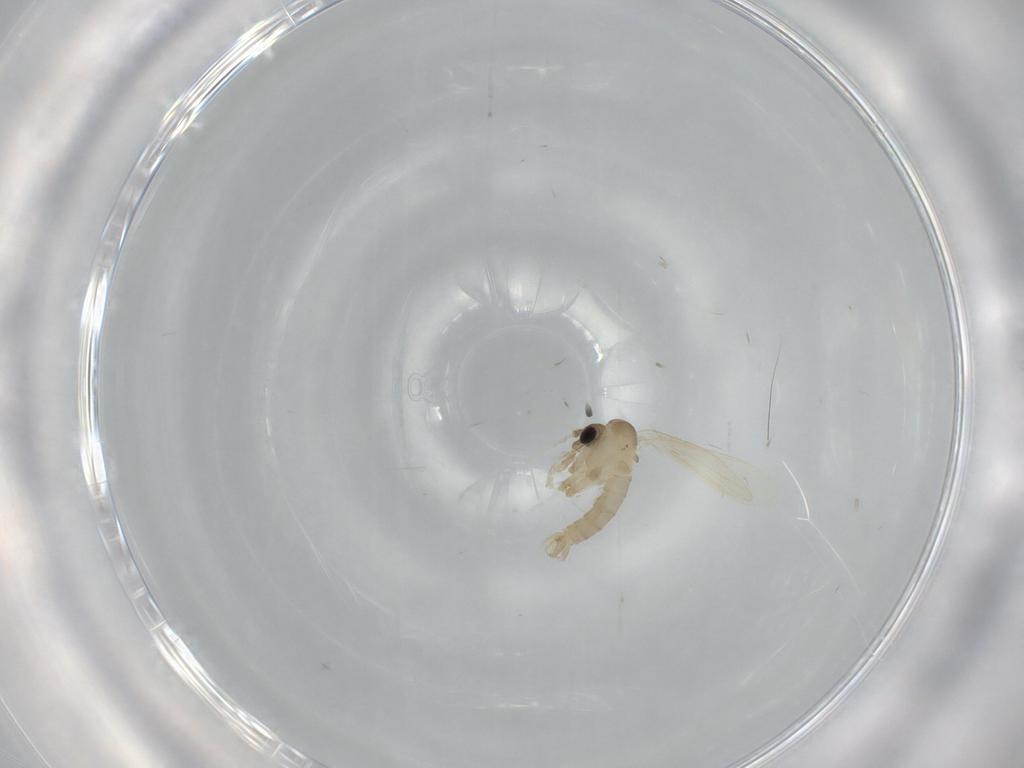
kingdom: Animalia
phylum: Arthropoda
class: Insecta
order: Diptera
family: Psychodidae
